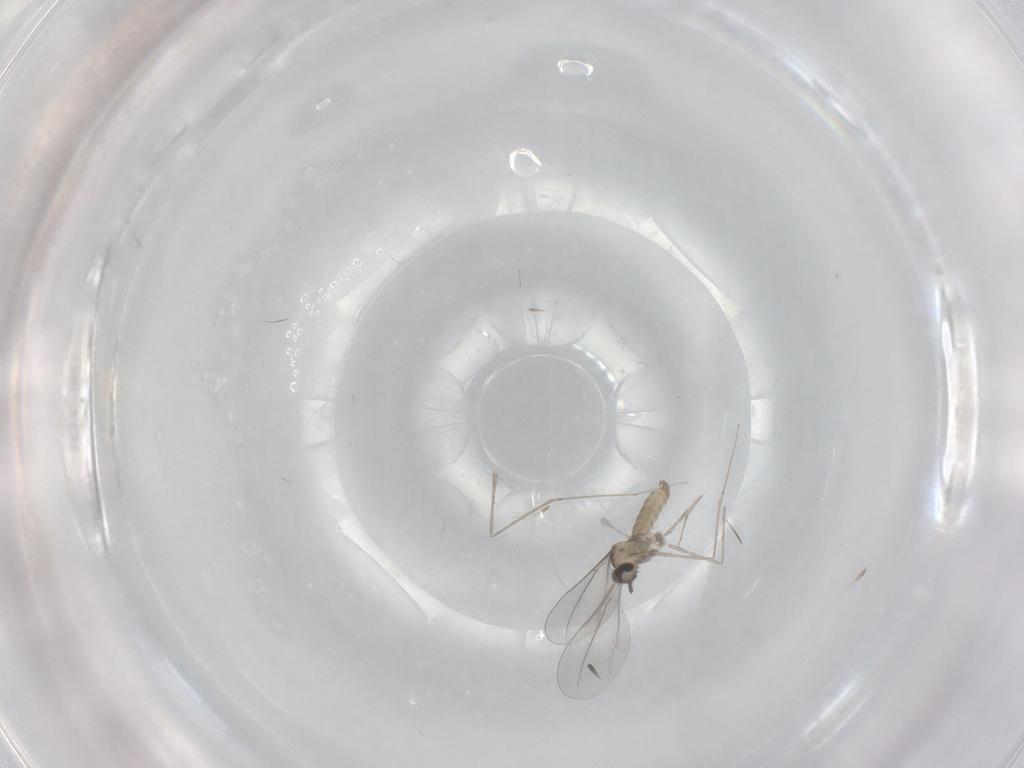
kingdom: Animalia
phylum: Arthropoda
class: Insecta
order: Diptera
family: Cecidomyiidae
